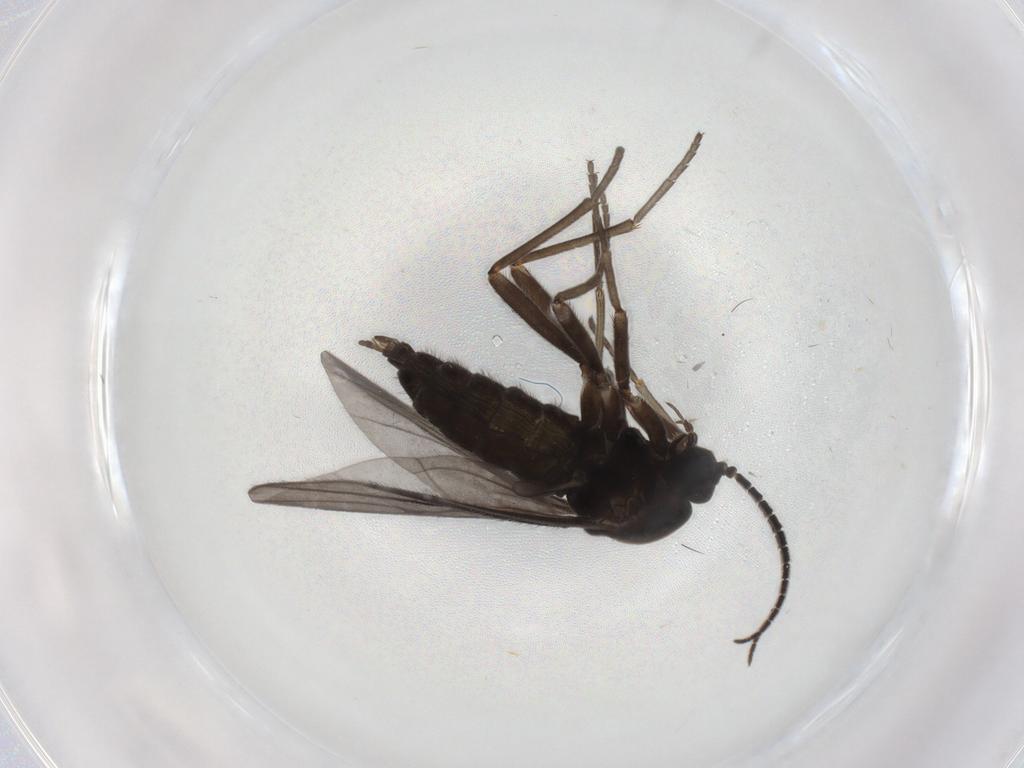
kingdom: Animalia
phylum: Arthropoda
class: Insecta
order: Diptera
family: Sciaridae
